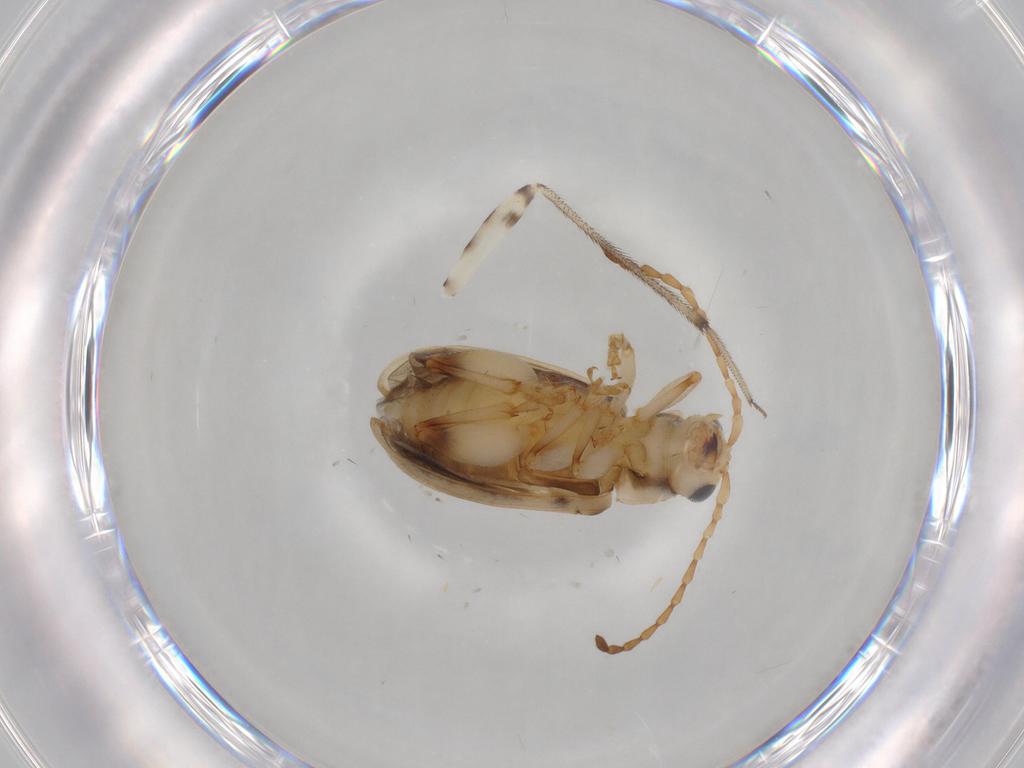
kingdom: Animalia
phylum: Arthropoda
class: Insecta
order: Coleoptera
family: Chrysomelidae
